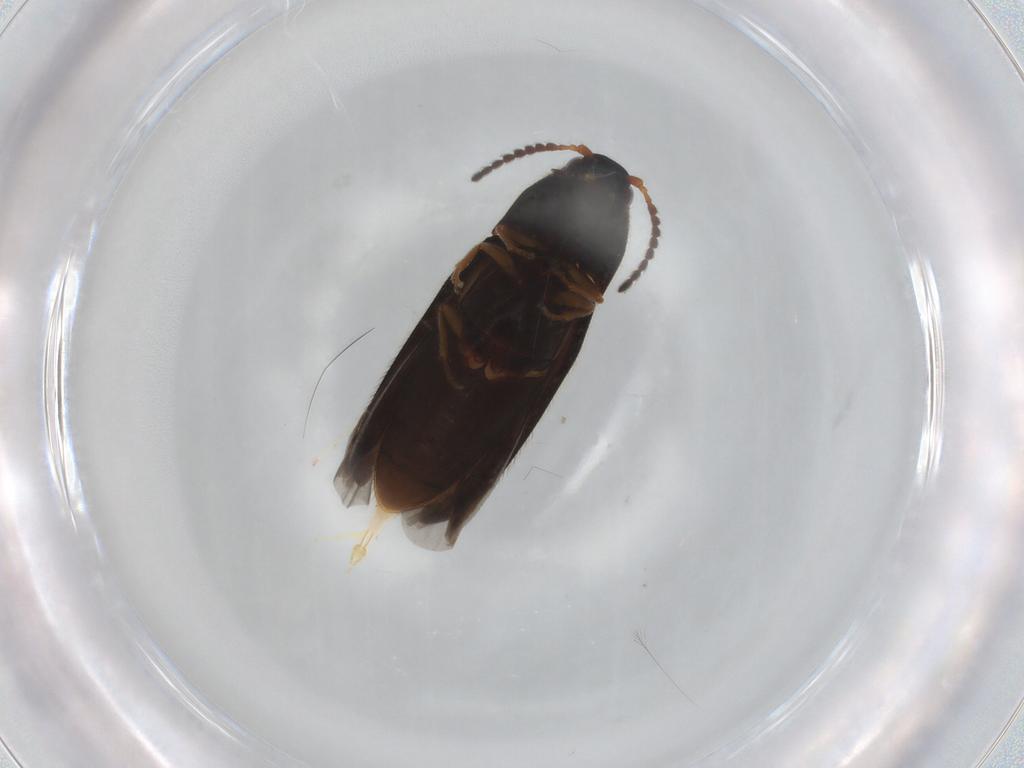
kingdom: Animalia
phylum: Arthropoda
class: Insecta
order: Coleoptera
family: Elateridae
